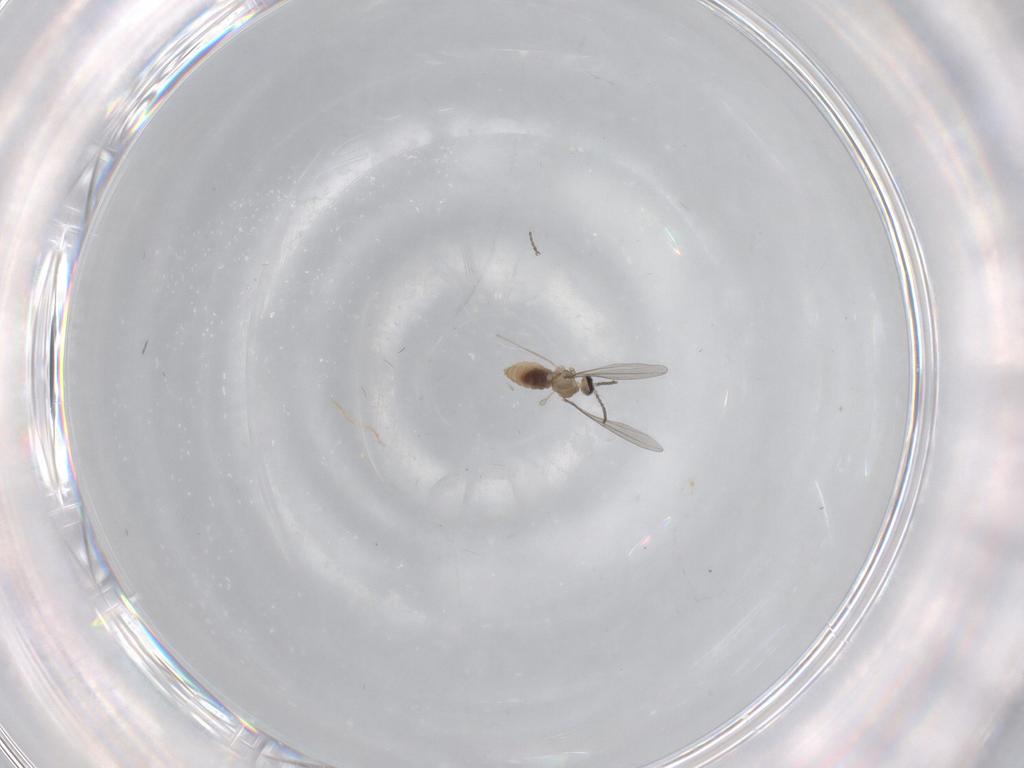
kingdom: Animalia
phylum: Arthropoda
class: Insecta
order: Diptera
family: Cecidomyiidae
